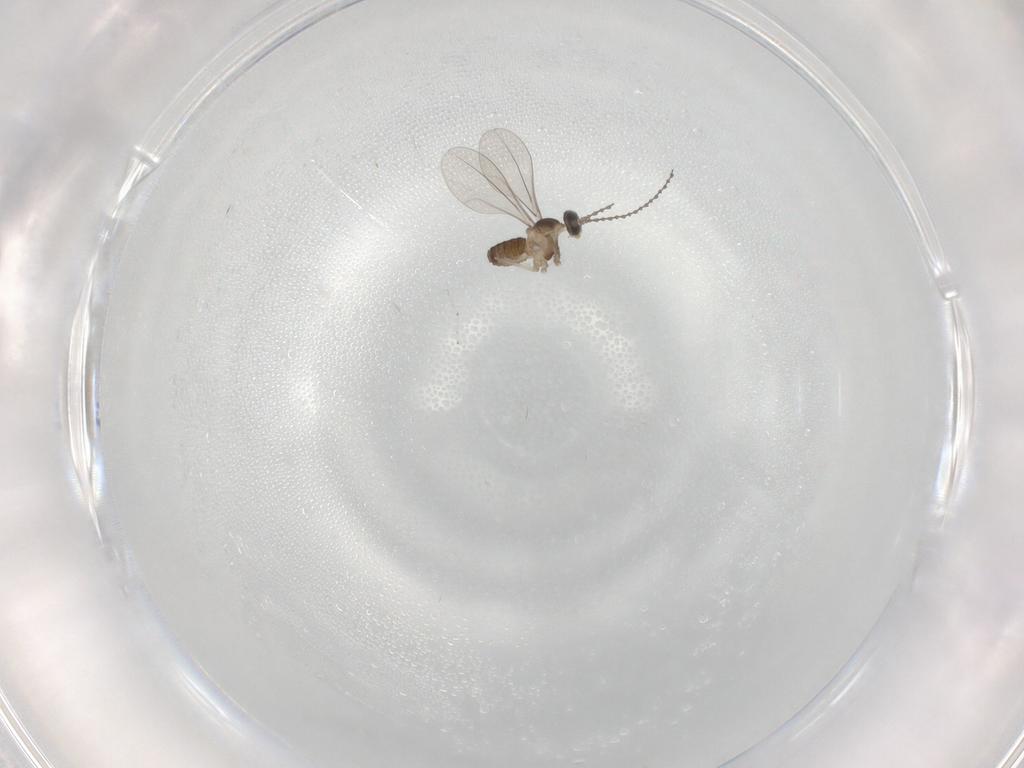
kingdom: Animalia
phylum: Arthropoda
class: Insecta
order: Diptera
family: Cecidomyiidae
